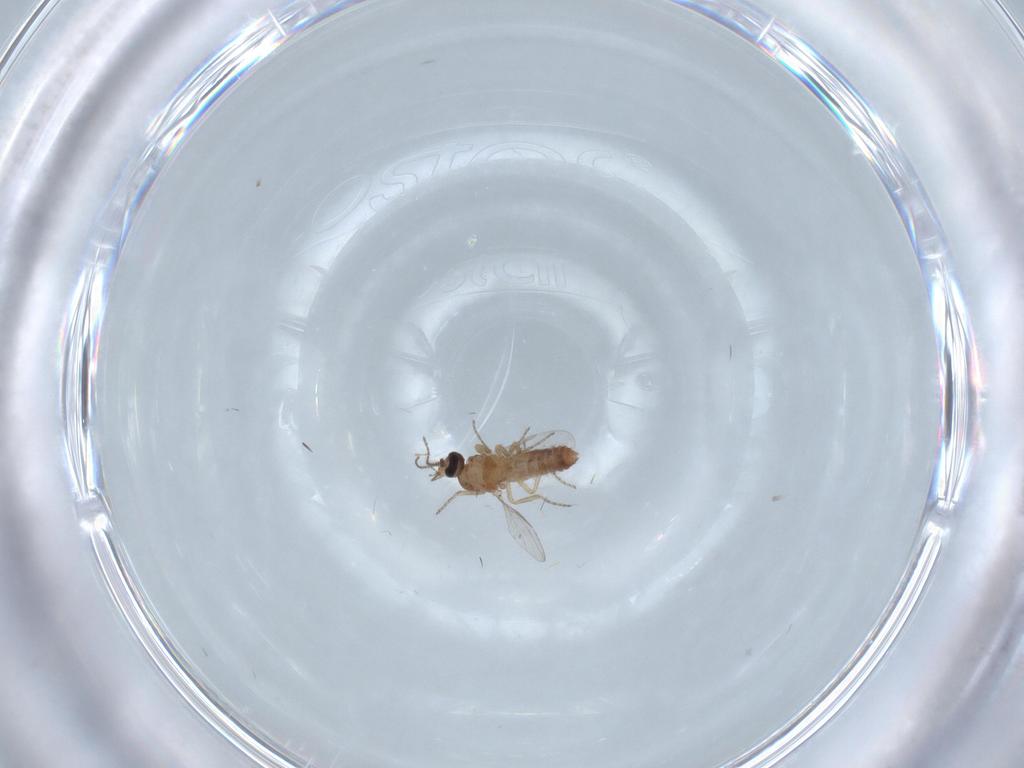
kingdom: Animalia
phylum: Arthropoda
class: Insecta
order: Diptera
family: Ceratopogonidae
